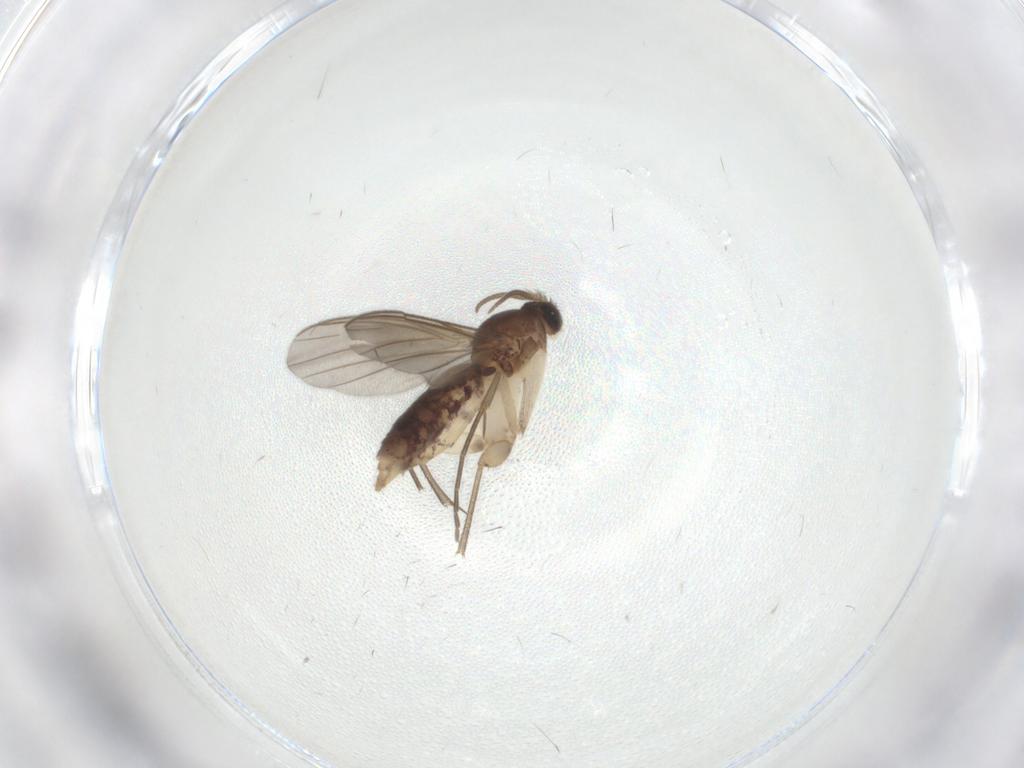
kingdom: Animalia
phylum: Arthropoda
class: Insecta
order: Diptera
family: Mycetophilidae
